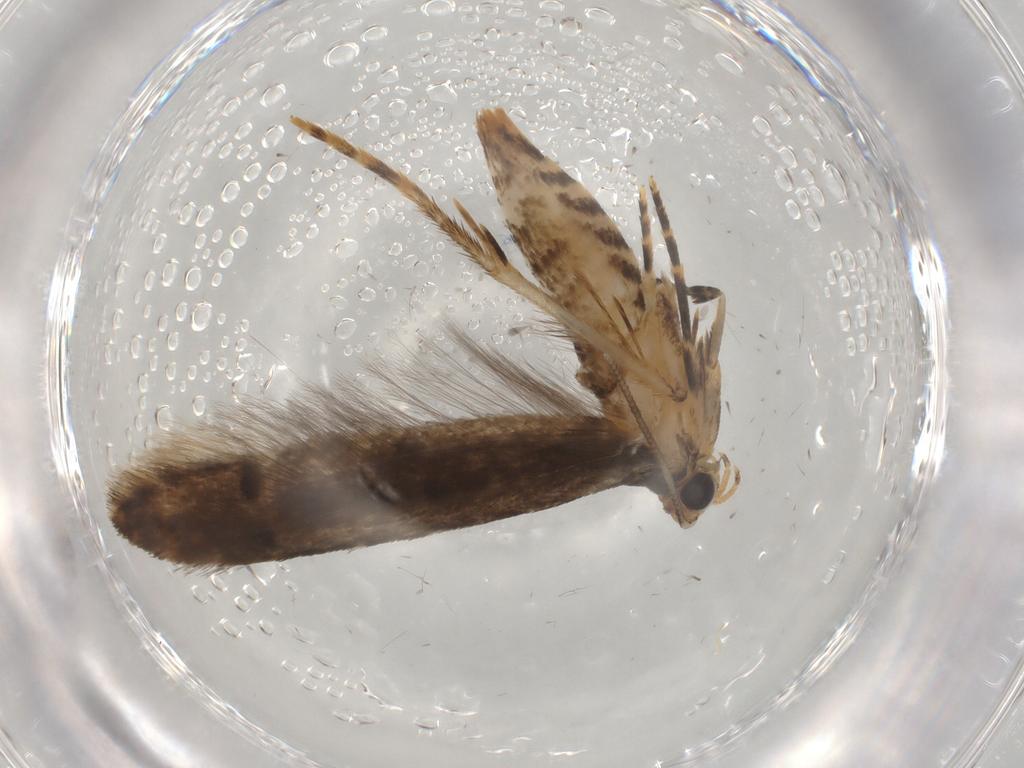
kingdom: Animalia
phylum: Arthropoda
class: Insecta
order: Lepidoptera
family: Tineidae
